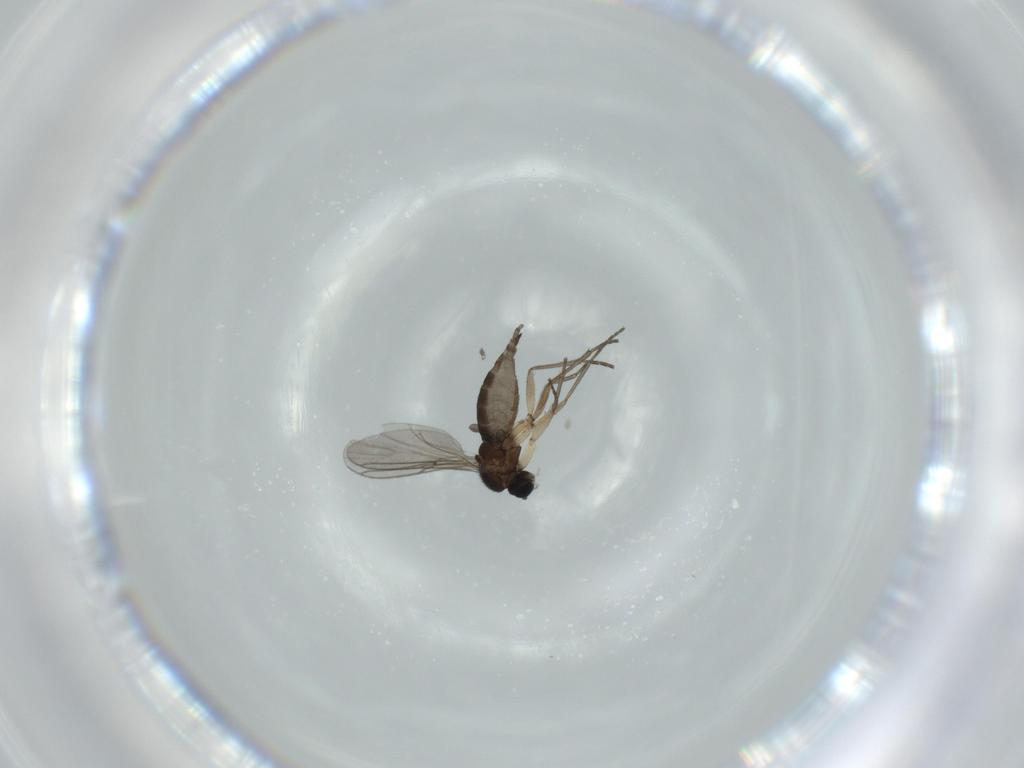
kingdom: Animalia
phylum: Arthropoda
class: Insecta
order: Diptera
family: Sciaridae
